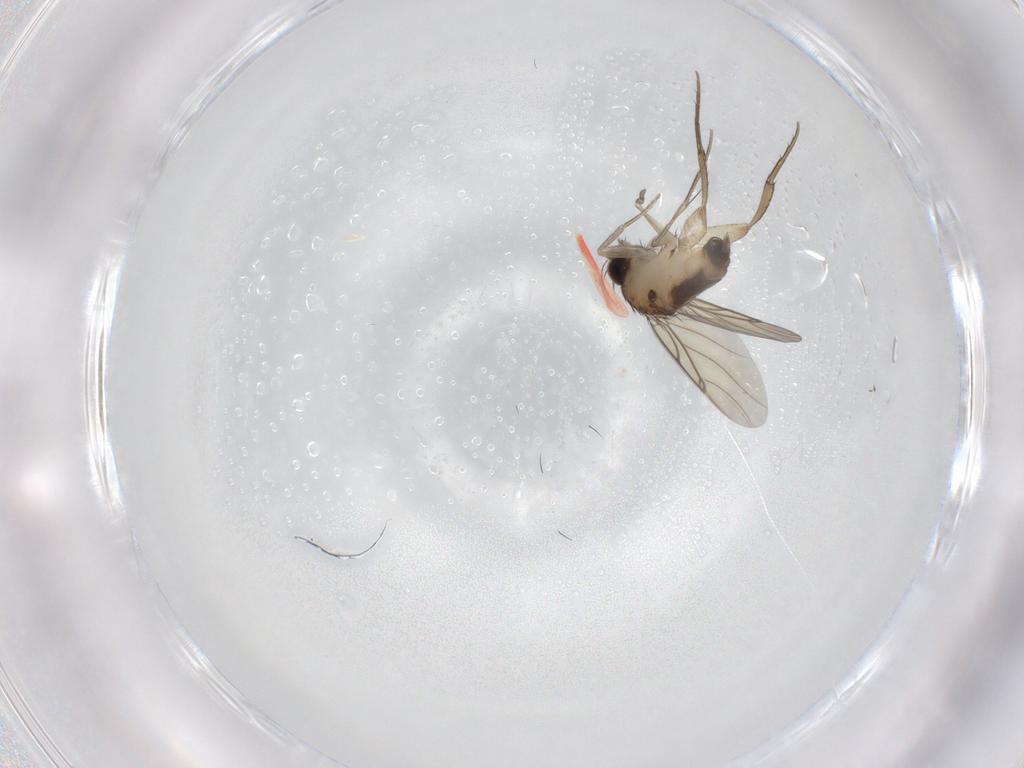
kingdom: Animalia
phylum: Arthropoda
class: Insecta
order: Diptera
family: Phoridae
